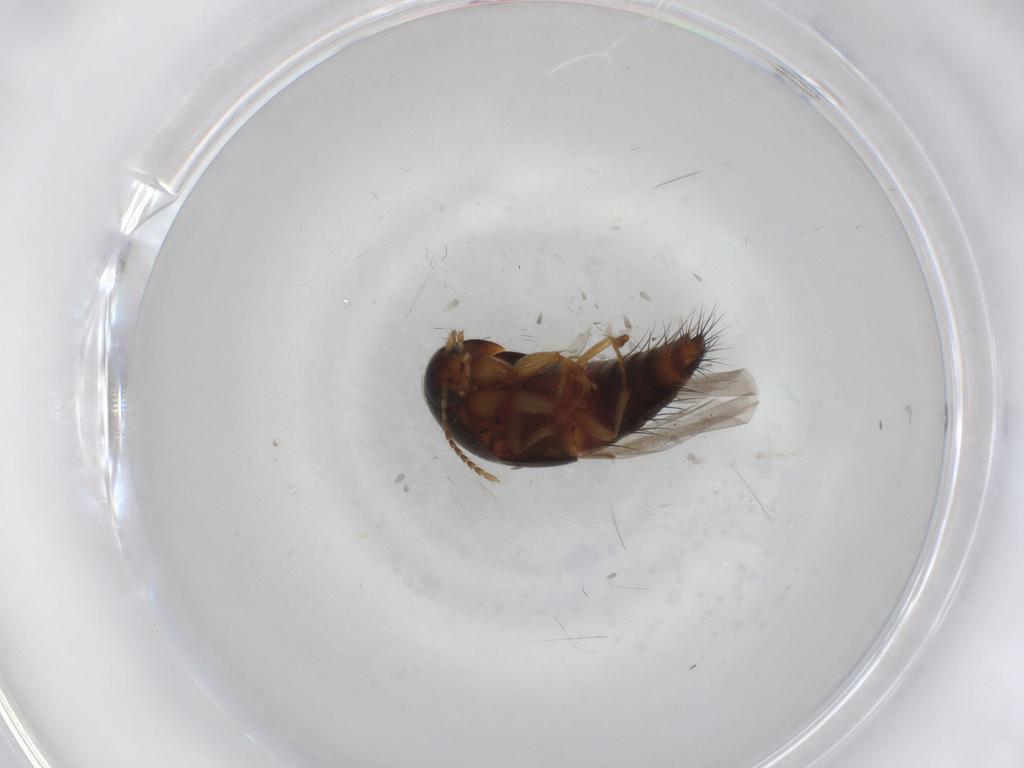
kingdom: Animalia
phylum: Arthropoda
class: Insecta
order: Coleoptera
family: Staphylinidae
